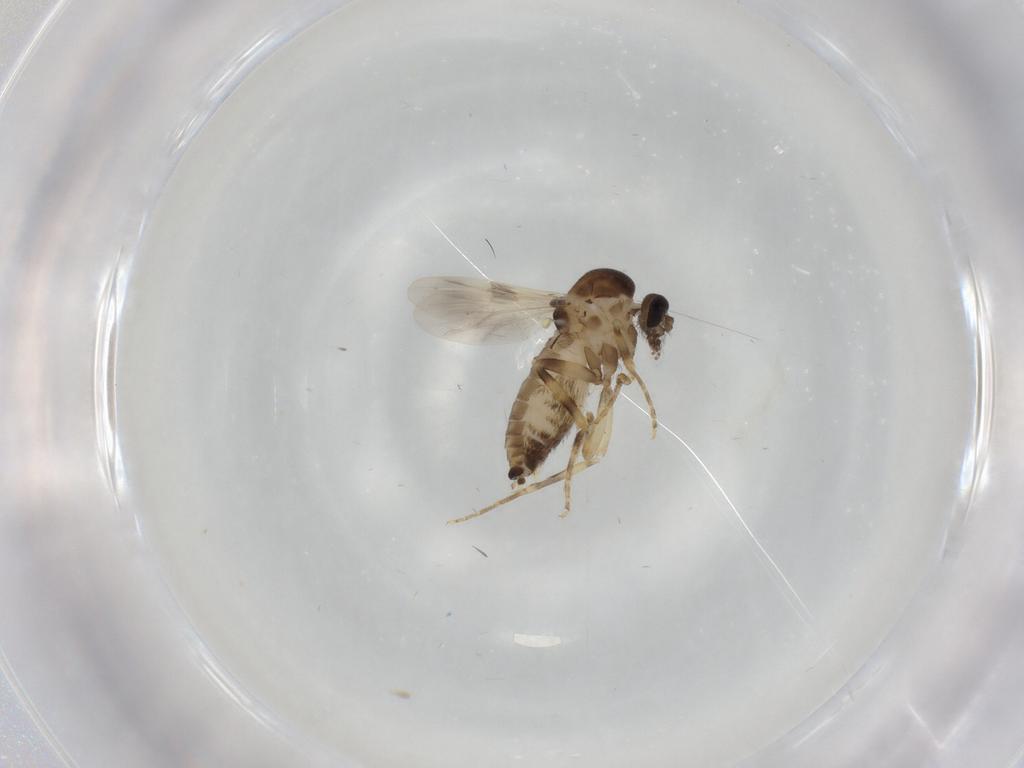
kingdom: Animalia
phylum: Arthropoda
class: Insecta
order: Diptera
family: Ceratopogonidae
